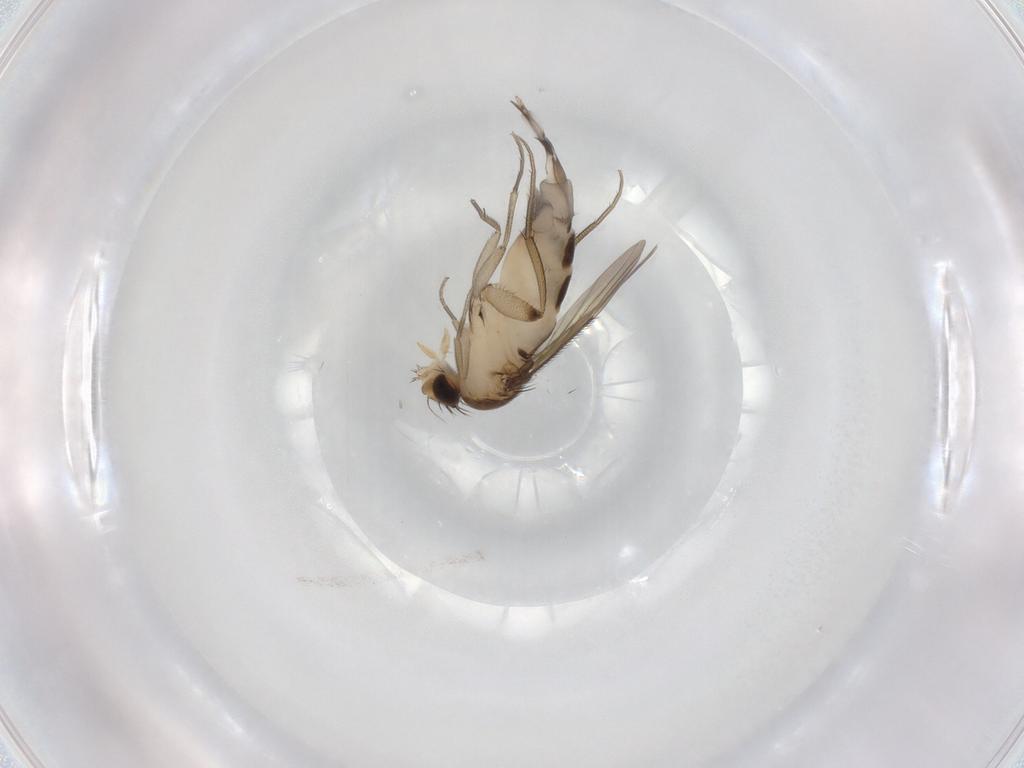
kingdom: Animalia
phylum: Arthropoda
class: Insecta
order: Diptera
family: Phoridae
